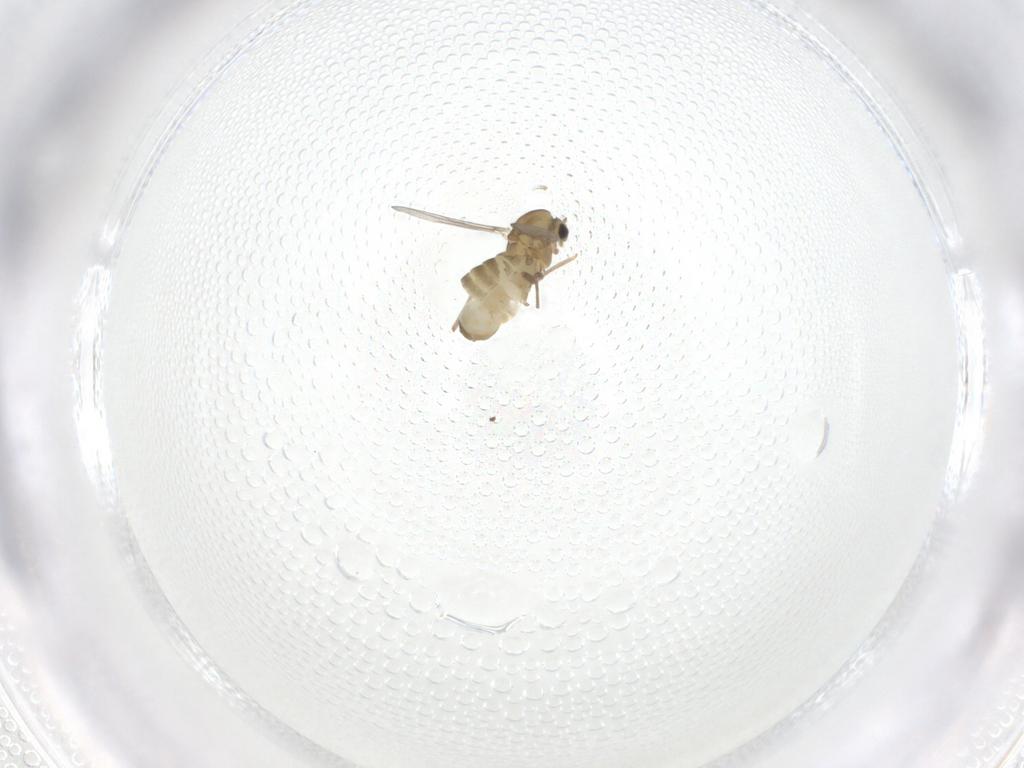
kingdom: Animalia
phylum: Arthropoda
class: Insecta
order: Diptera
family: Chironomidae
